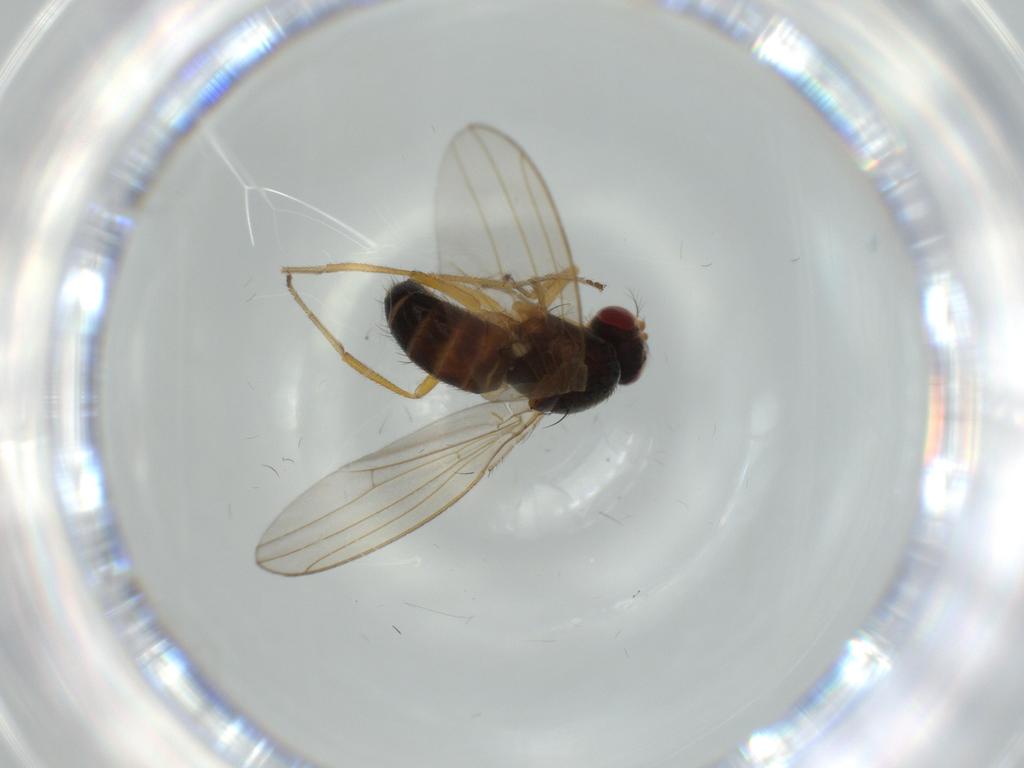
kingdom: Animalia
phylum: Arthropoda
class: Insecta
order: Diptera
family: Drosophilidae
